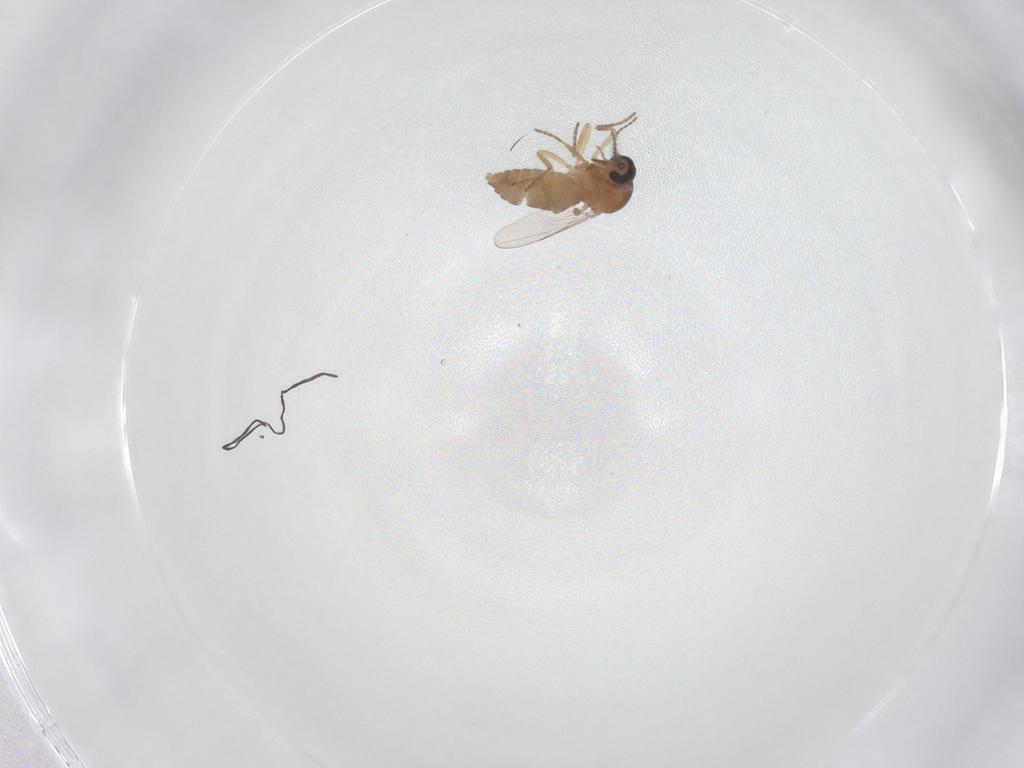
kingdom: Animalia
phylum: Arthropoda
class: Insecta
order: Diptera
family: Ceratopogonidae
